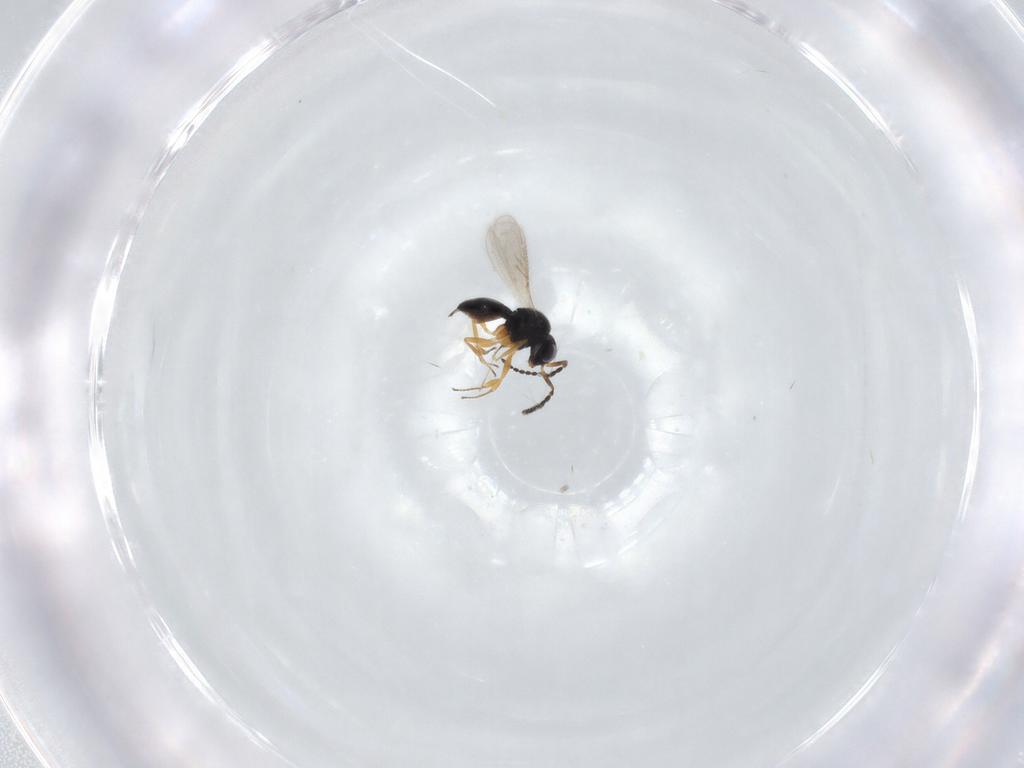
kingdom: Animalia
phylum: Arthropoda
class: Insecta
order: Hymenoptera
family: Scelionidae
